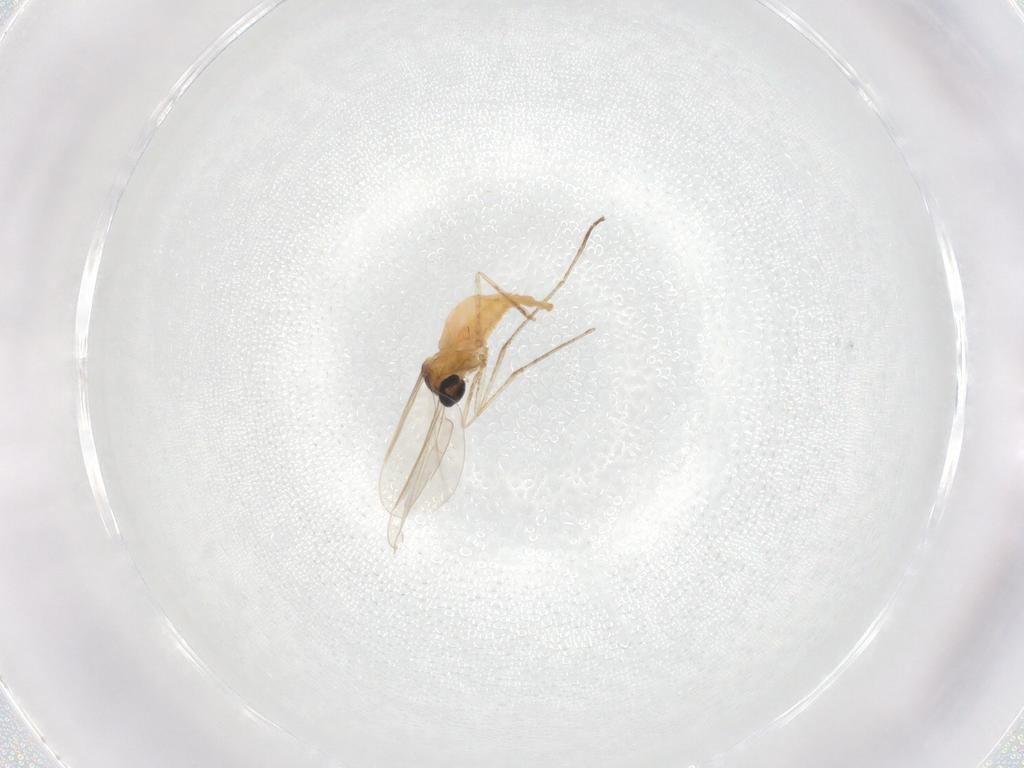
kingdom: Animalia
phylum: Arthropoda
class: Insecta
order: Diptera
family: Cecidomyiidae
